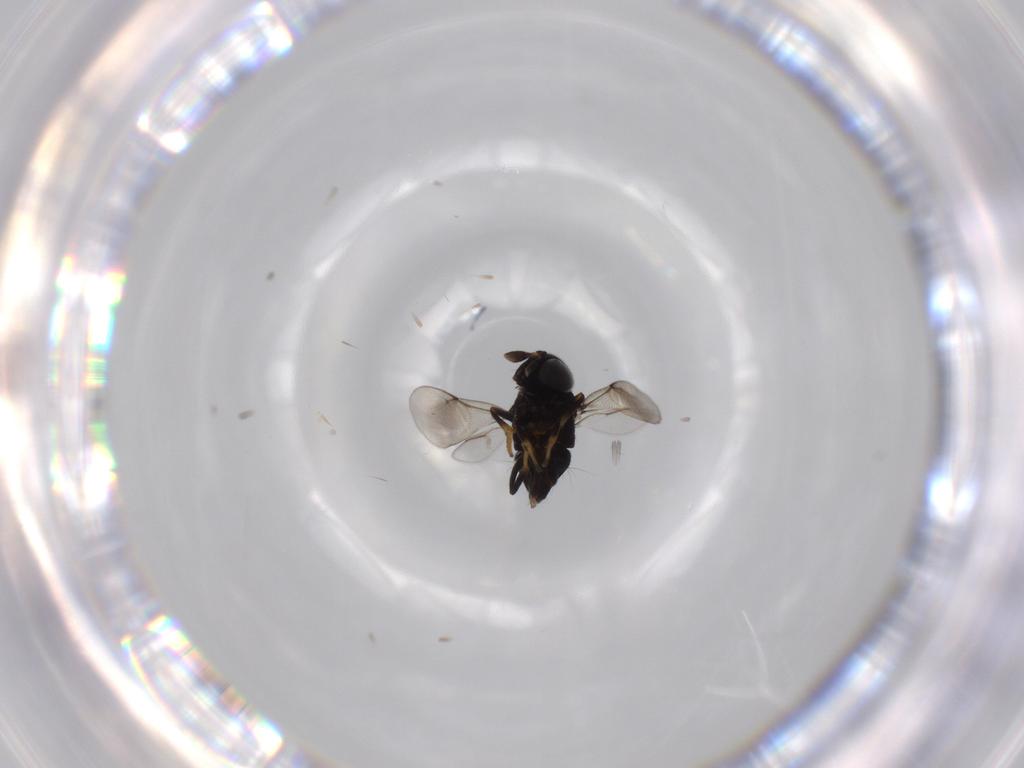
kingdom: Animalia
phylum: Arthropoda
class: Insecta
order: Hymenoptera
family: Encyrtidae
